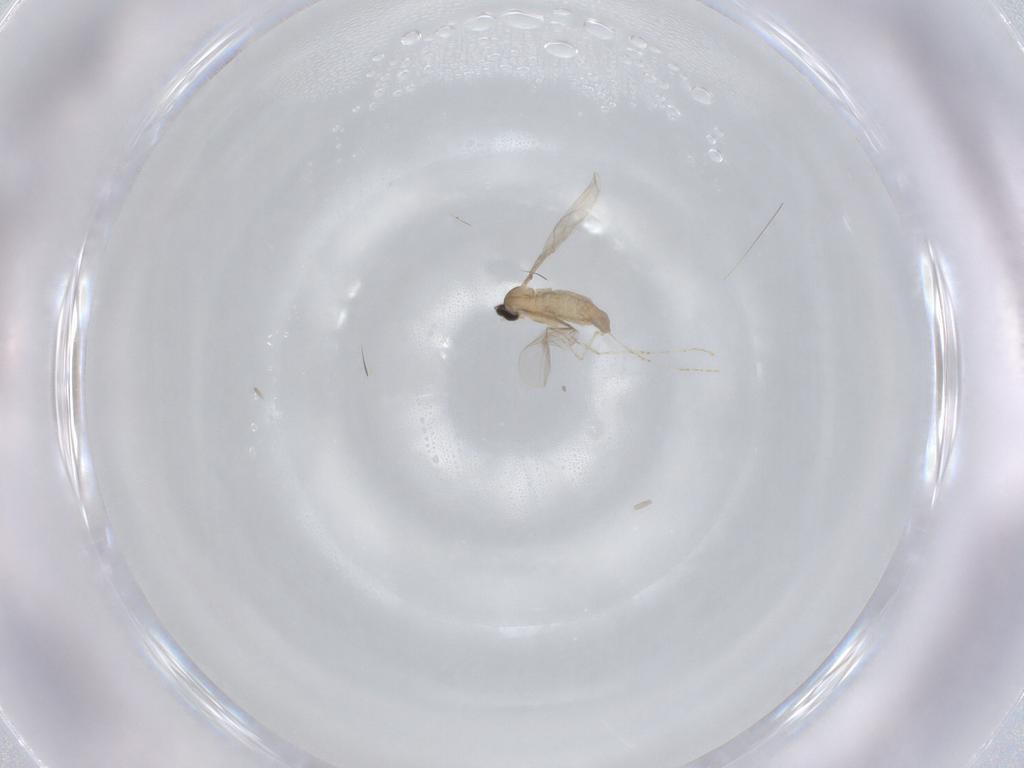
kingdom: Animalia
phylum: Arthropoda
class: Insecta
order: Diptera
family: Cecidomyiidae
